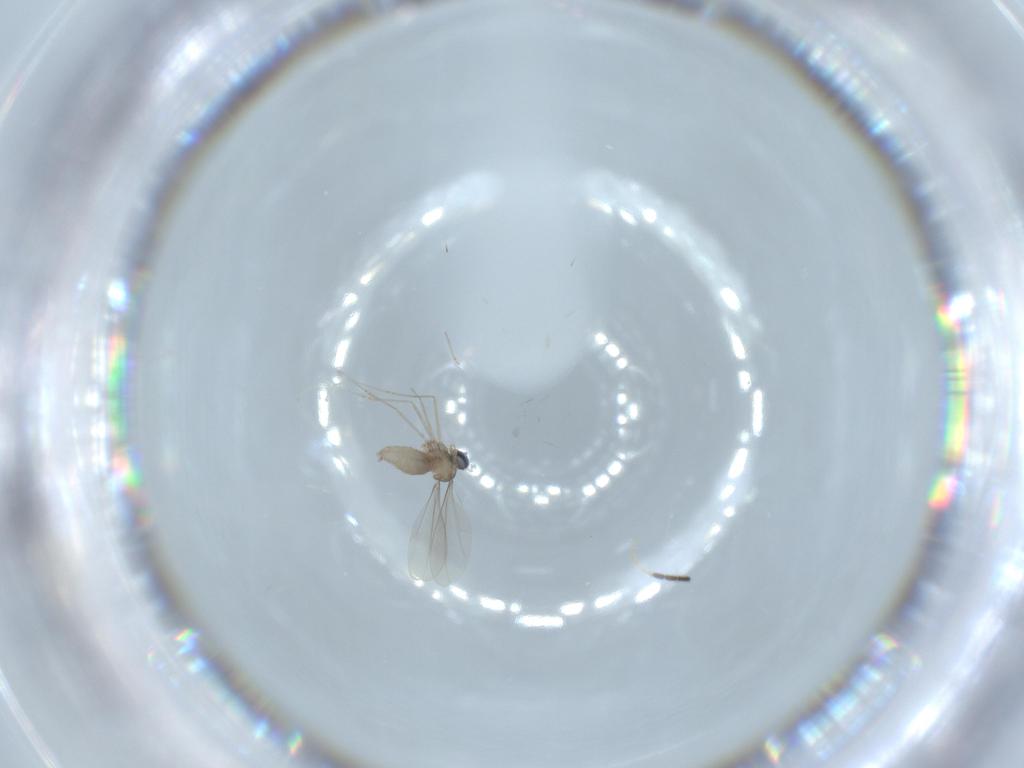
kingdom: Animalia
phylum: Arthropoda
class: Insecta
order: Diptera
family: Cecidomyiidae
